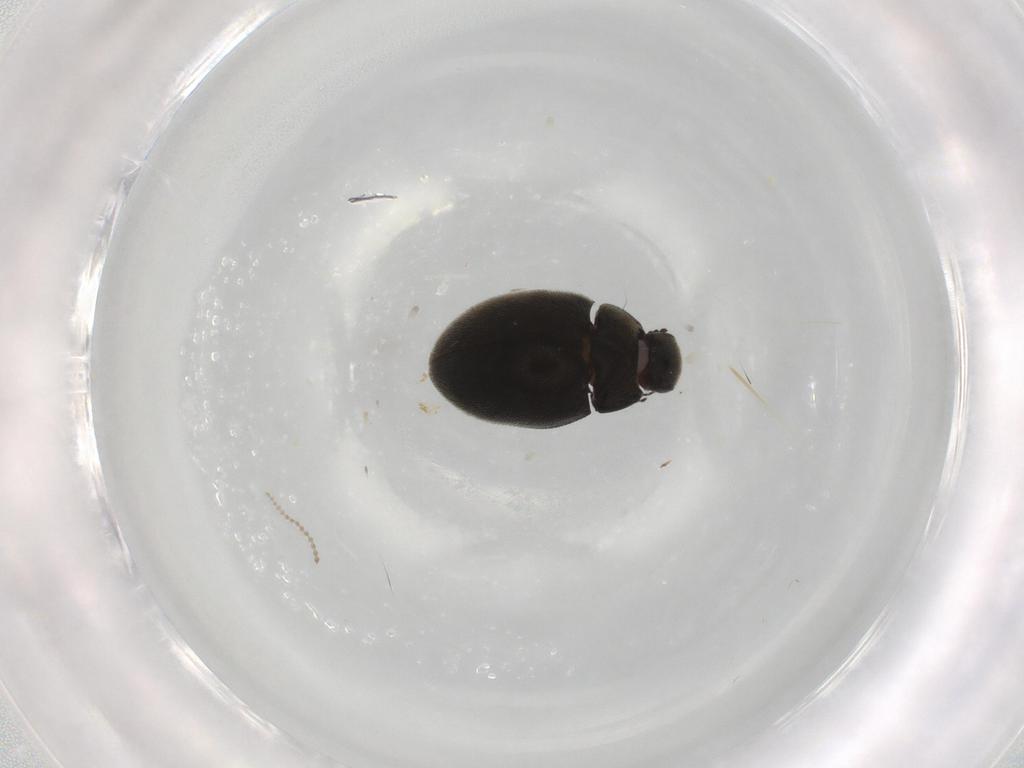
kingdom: Animalia
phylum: Arthropoda
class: Insecta
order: Coleoptera
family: Limnichidae
